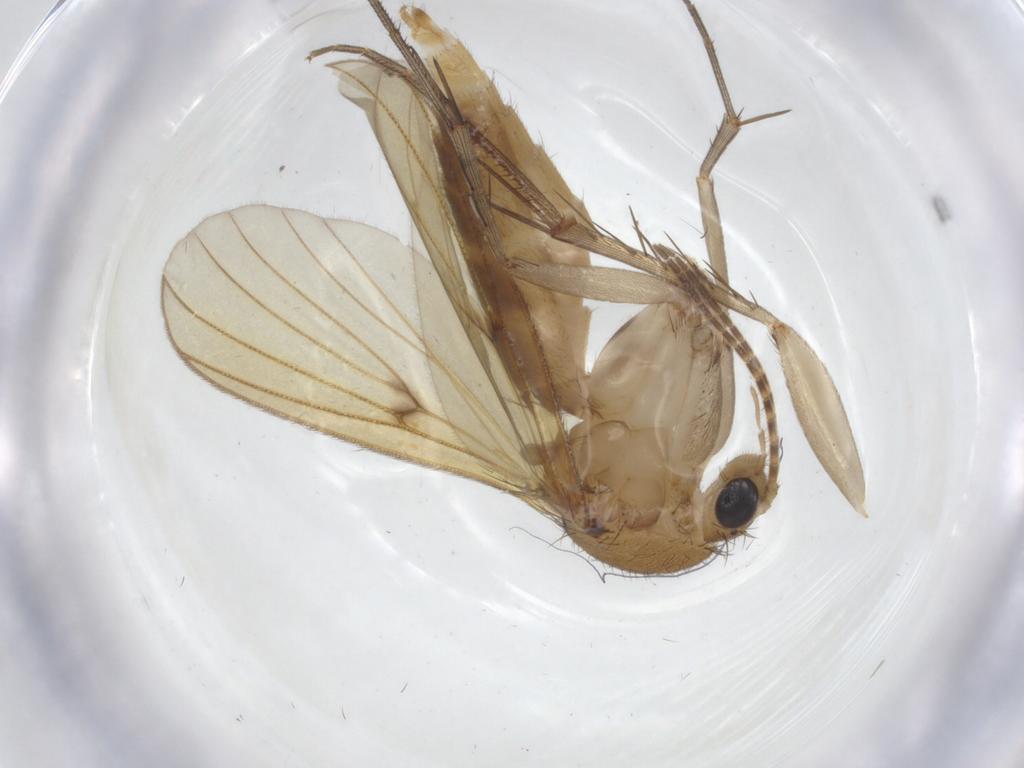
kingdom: Animalia
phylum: Arthropoda
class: Insecta
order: Diptera
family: Mycetophilidae
